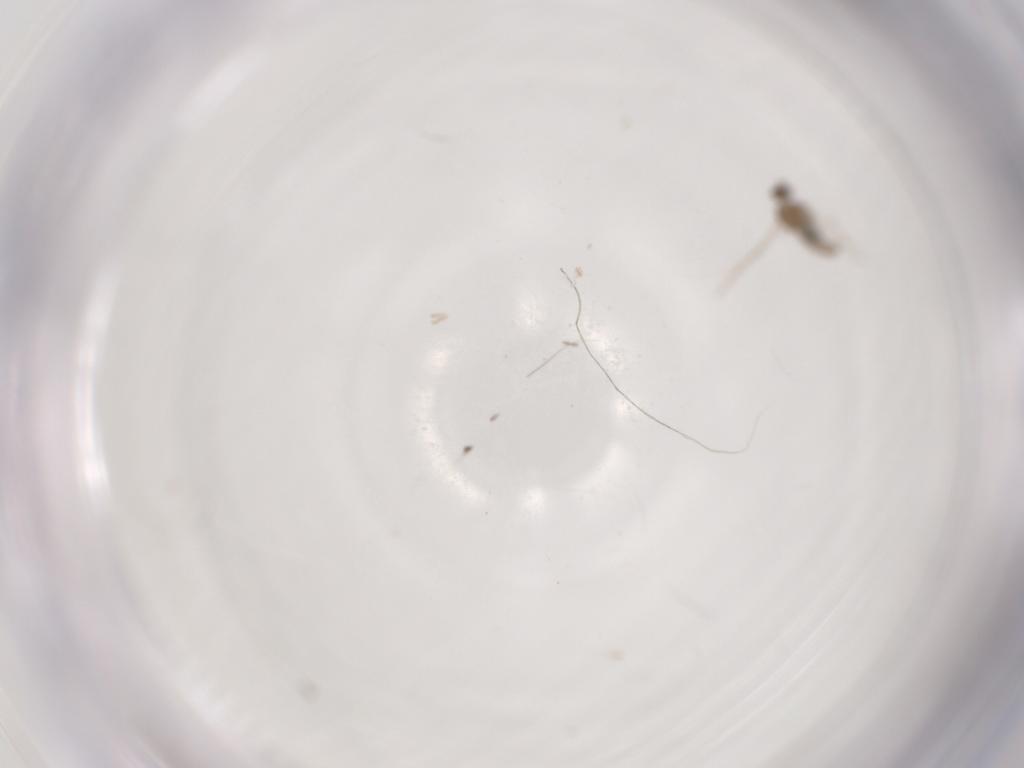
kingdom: Animalia
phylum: Arthropoda
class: Insecta
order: Diptera
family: Cecidomyiidae
